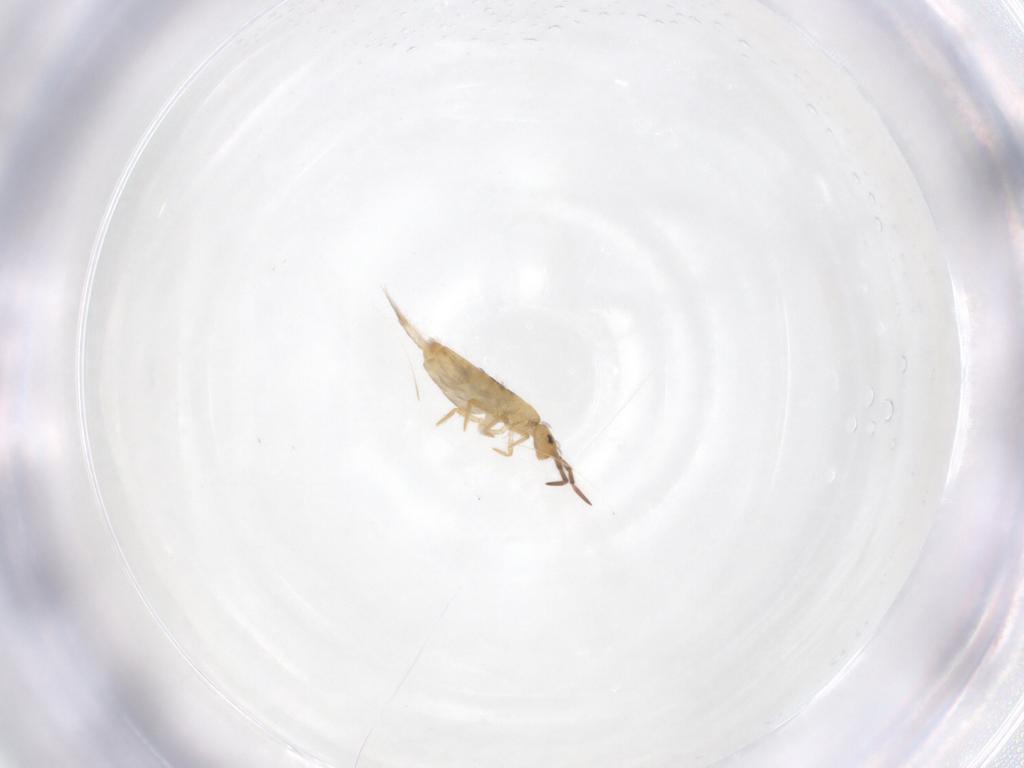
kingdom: Animalia
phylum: Arthropoda
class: Collembola
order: Entomobryomorpha
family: Entomobryidae
